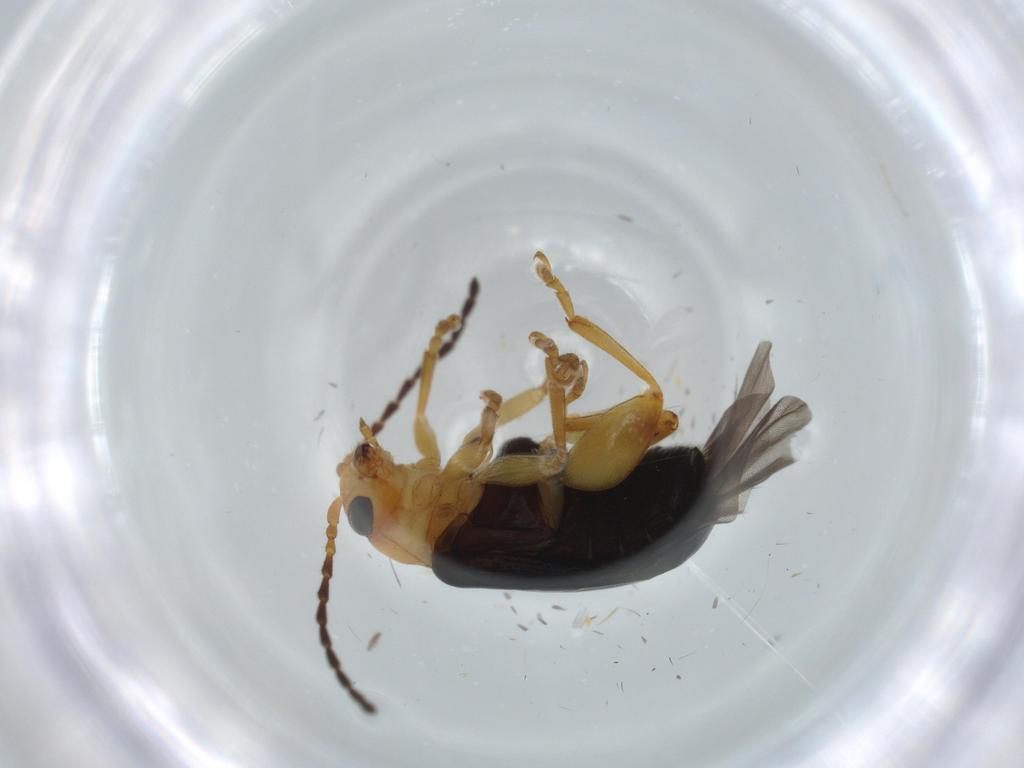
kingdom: Animalia
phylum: Arthropoda
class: Insecta
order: Coleoptera
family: Chrysomelidae
